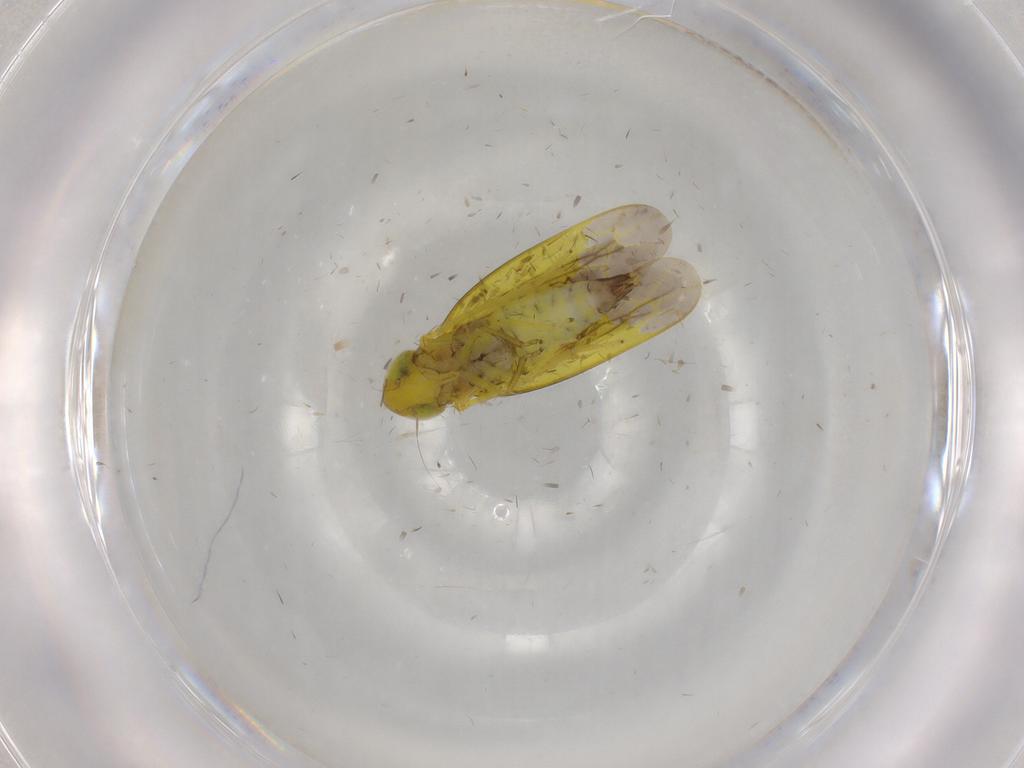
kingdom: Animalia
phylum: Arthropoda
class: Insecta
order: Hemiptera
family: Cicadellidae
